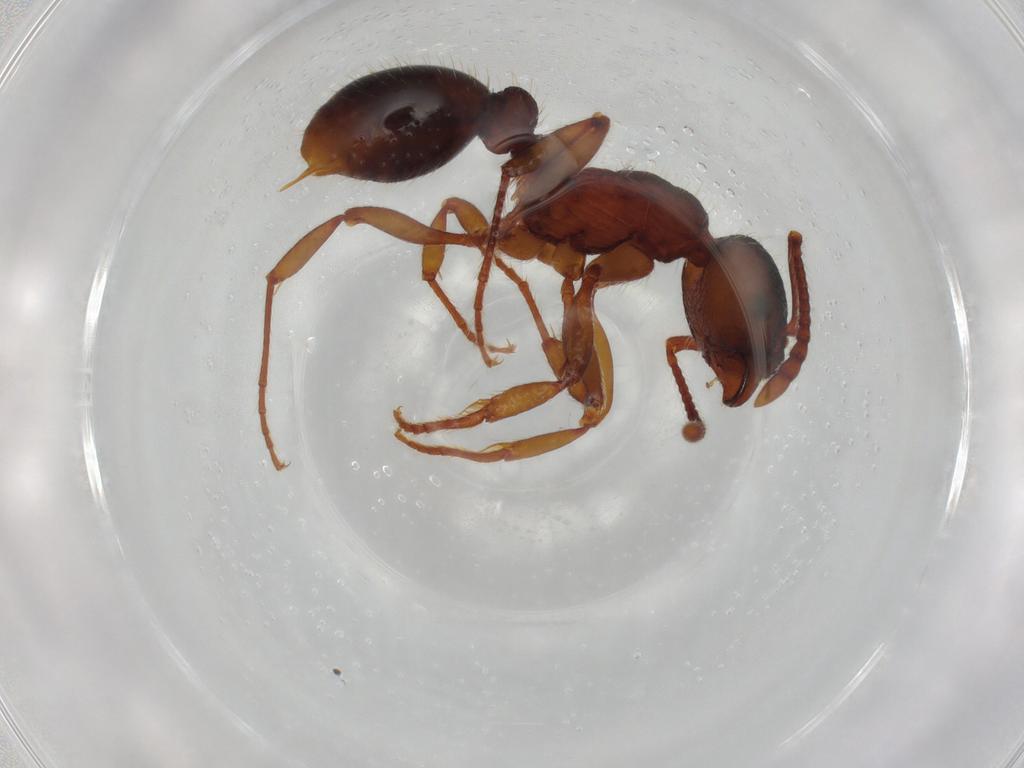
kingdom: Animalia
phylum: Arthropoda
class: Insecta
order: Hymenoptera
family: Formicidae
